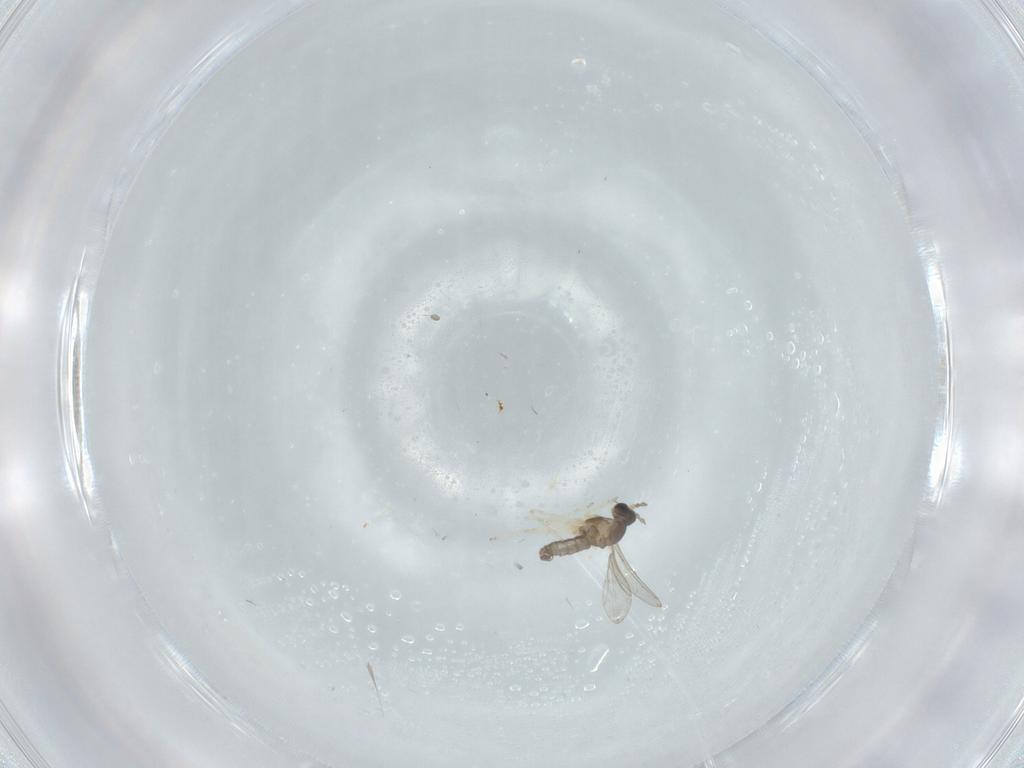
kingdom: Animalia
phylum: Arthropoda
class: Insecta
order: Diptera
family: Cecidomyiidae
